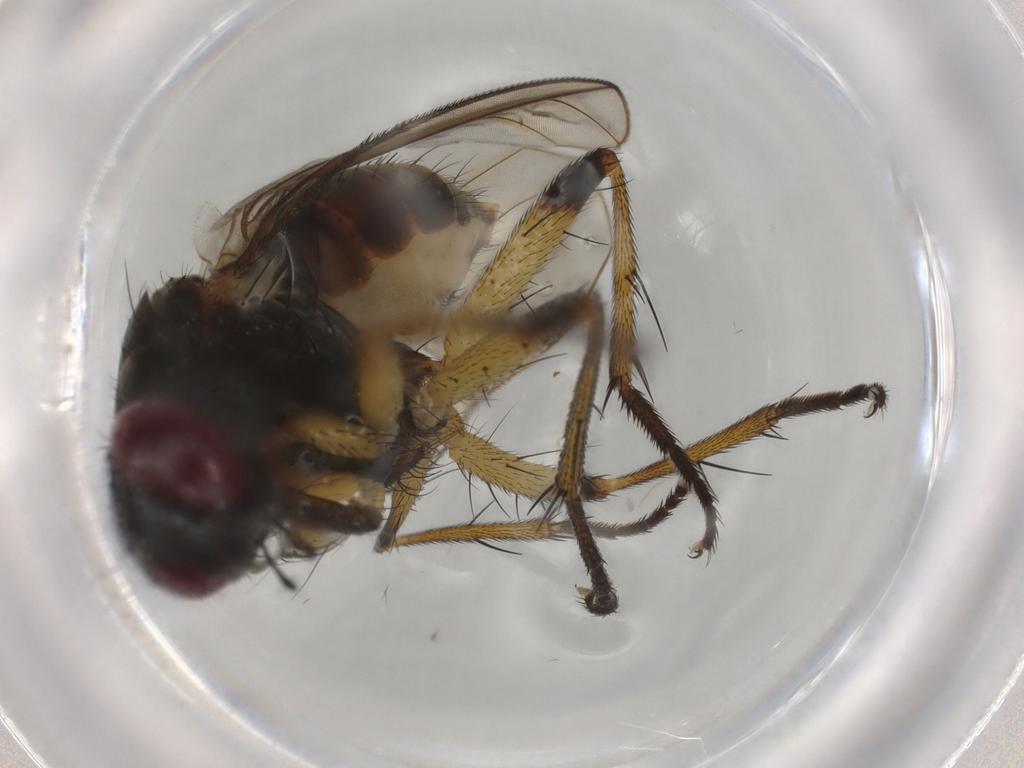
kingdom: Animalia
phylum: Arthropoda
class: Insecta
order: Diptera
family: Muscidae
